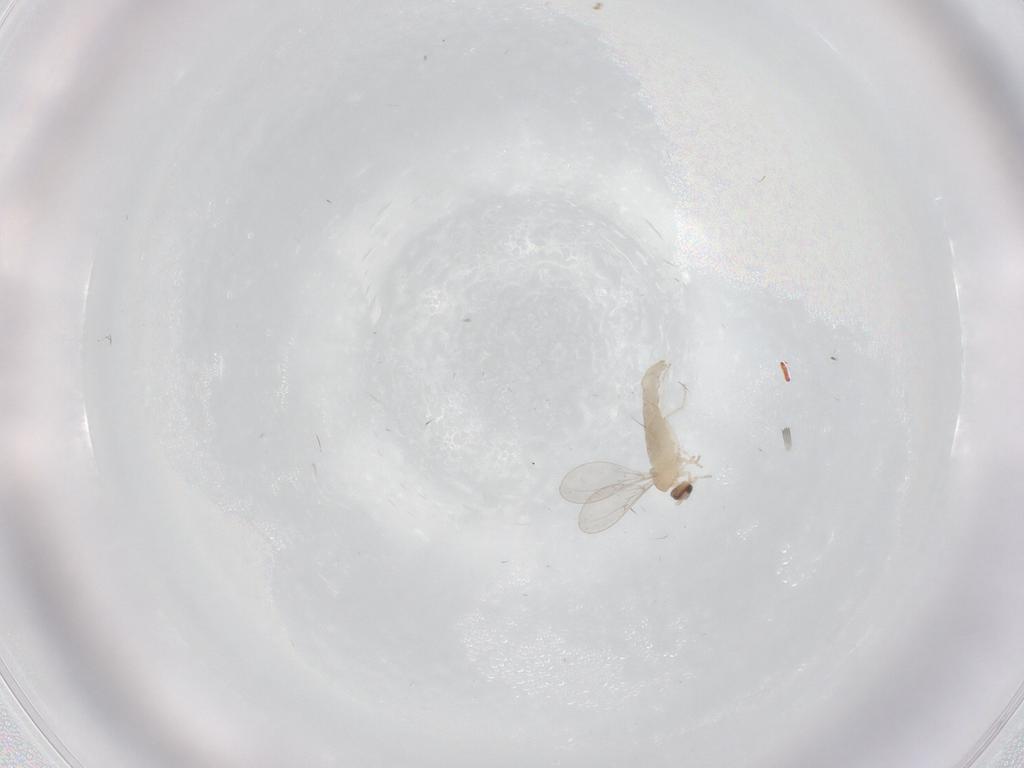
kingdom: Animalia
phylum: Arthropoda
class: Insecta
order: Diptera
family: Cecidomyiidae
